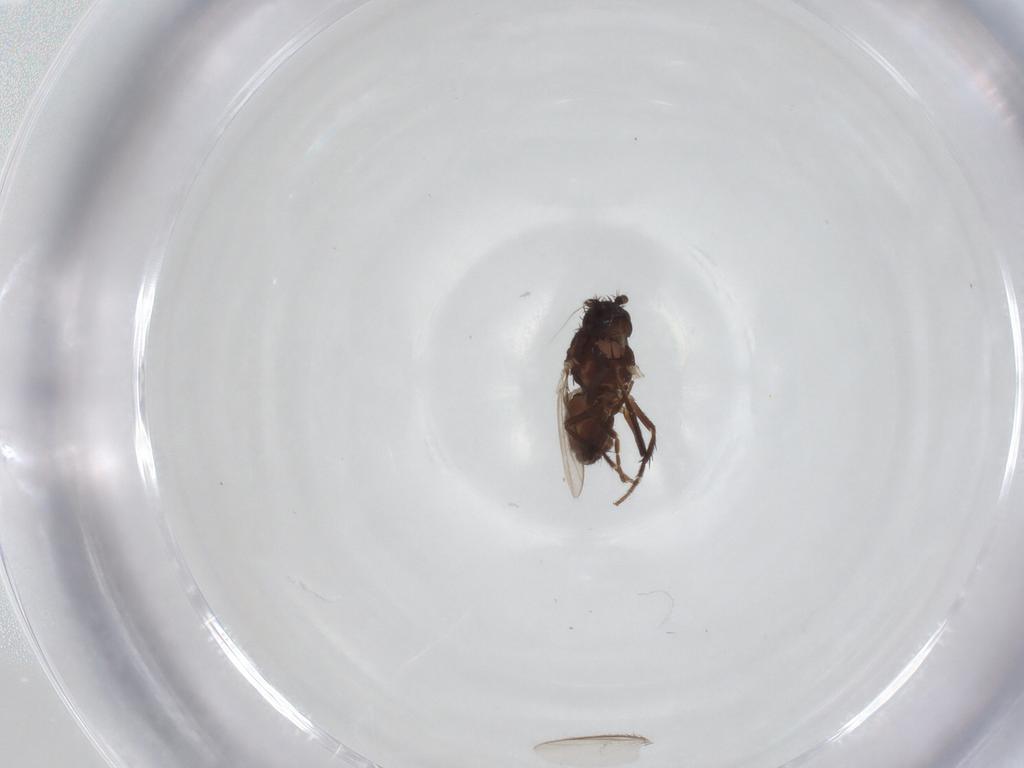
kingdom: Animalia
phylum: Arthropoda
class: Insecta
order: Diptera
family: Sphaeroceridae
